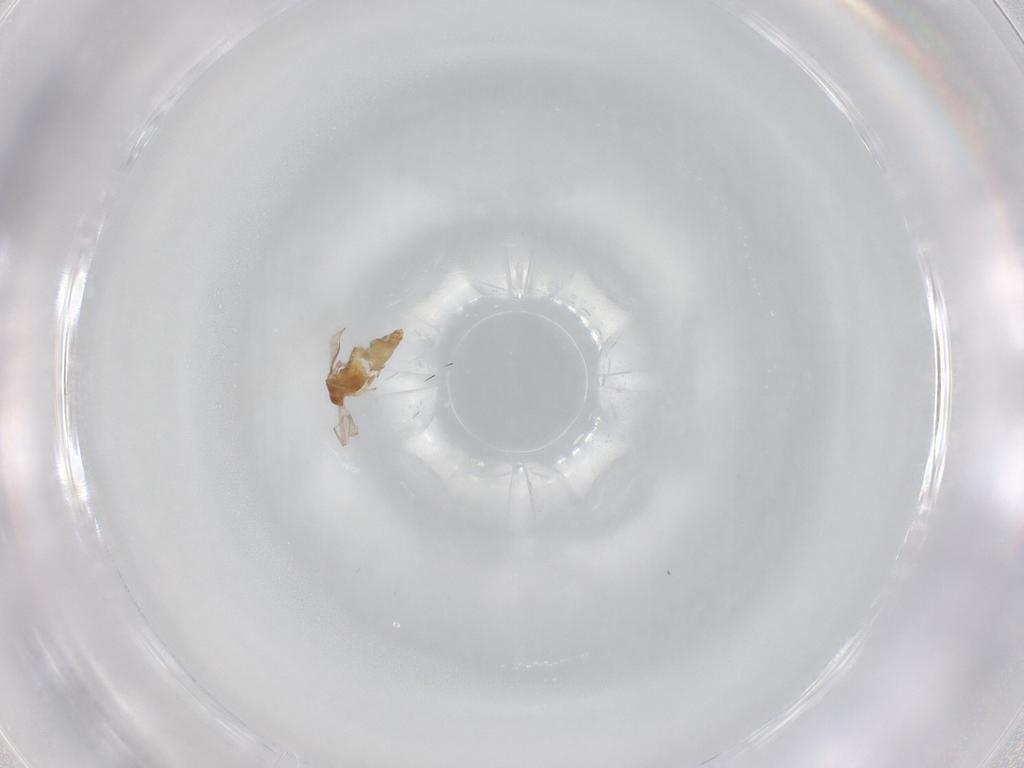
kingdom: Animalia
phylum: Arthropoda
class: Insecta
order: Diptera
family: Chironomidae
